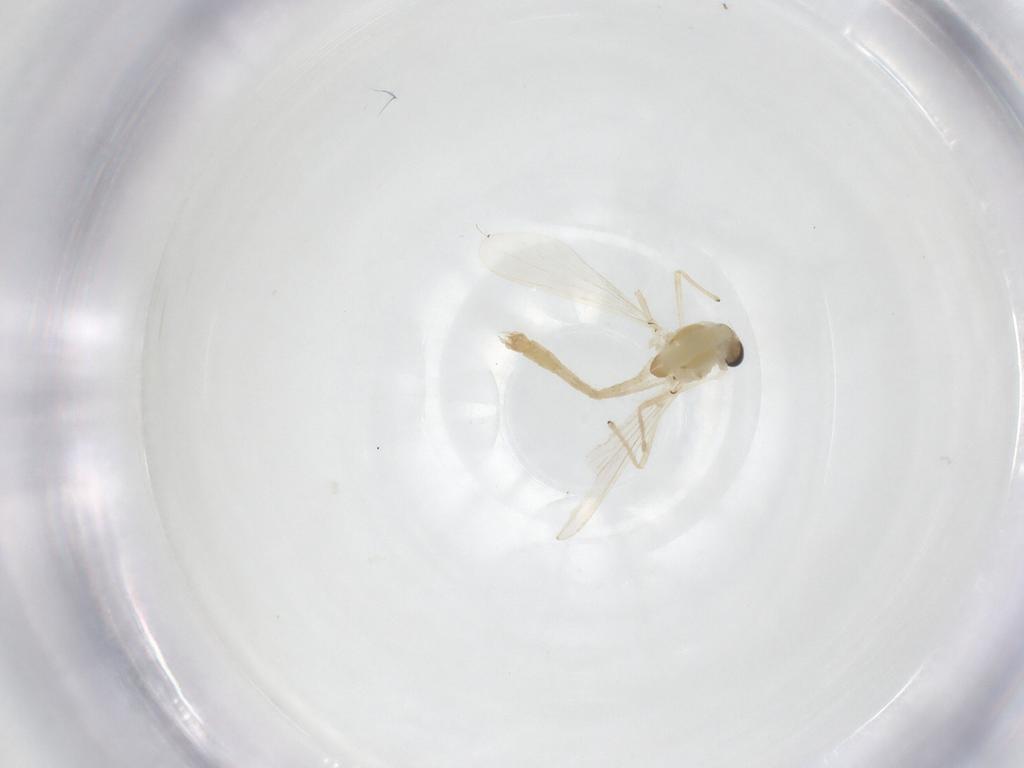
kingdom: Animalia
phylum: Arthropoda
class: Insecta
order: Diptera
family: Chironomidae
